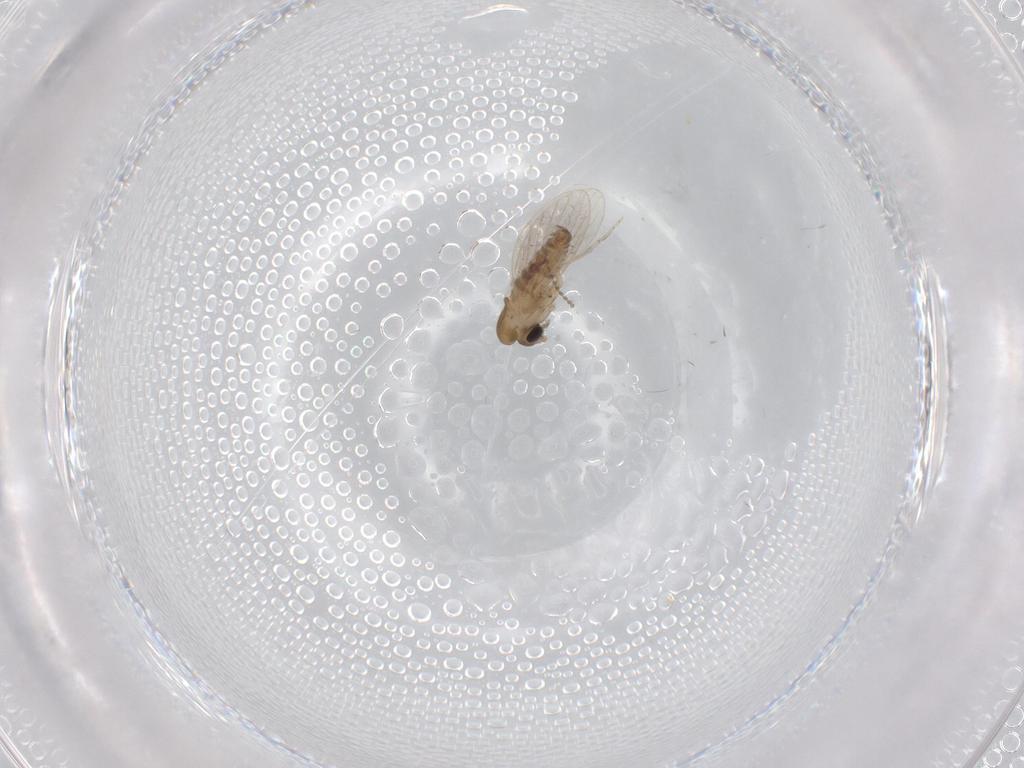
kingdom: Animalia
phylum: Arthropoda
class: Insecta
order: Diptera
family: Psychodidae
